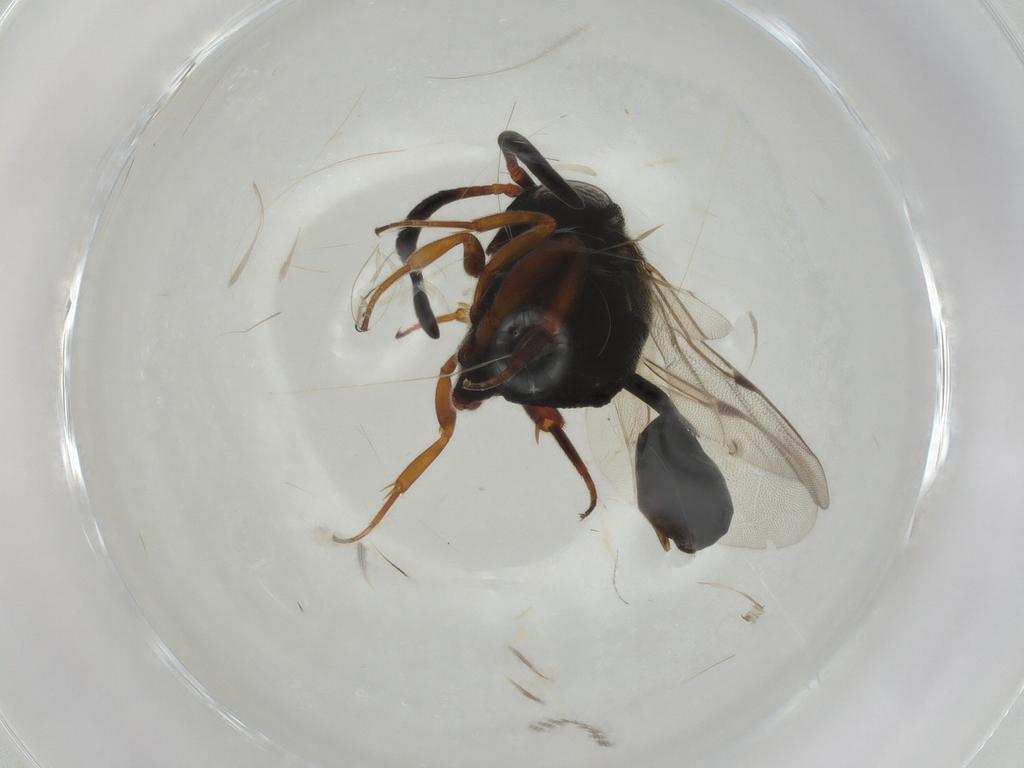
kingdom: Animalia
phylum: Arthropoda
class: Insecta
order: Hymenoptera
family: Evaniidae
